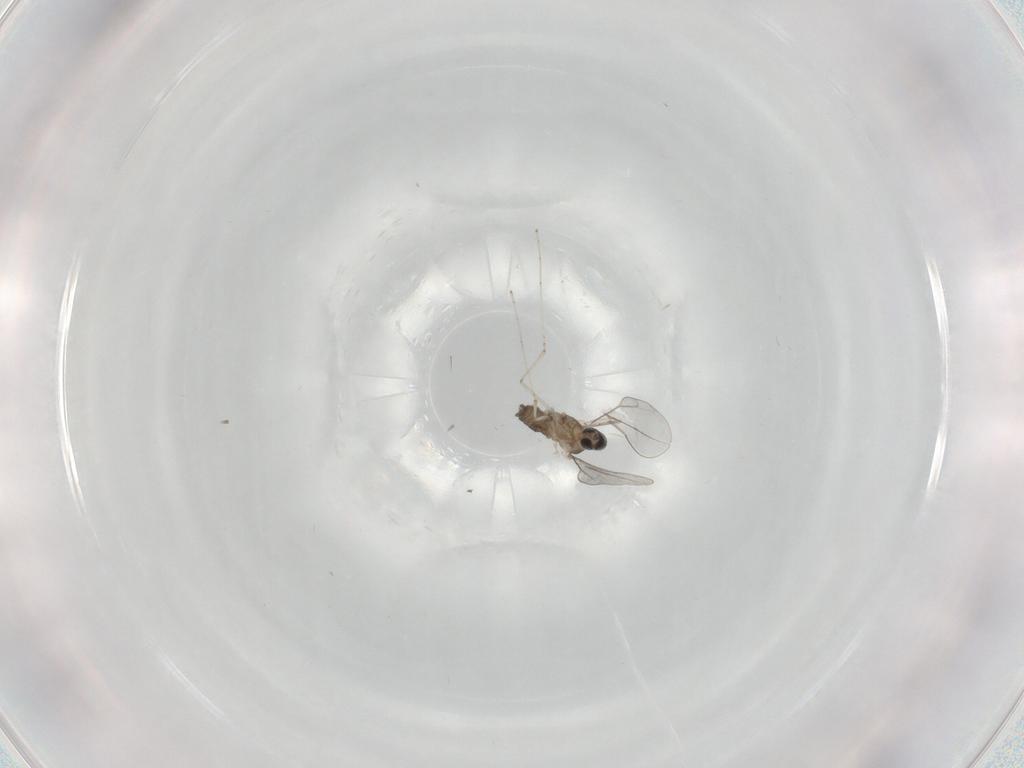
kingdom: Animalia
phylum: Arthropoda
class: Insecta
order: Diptera
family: Cecidomyiidae
